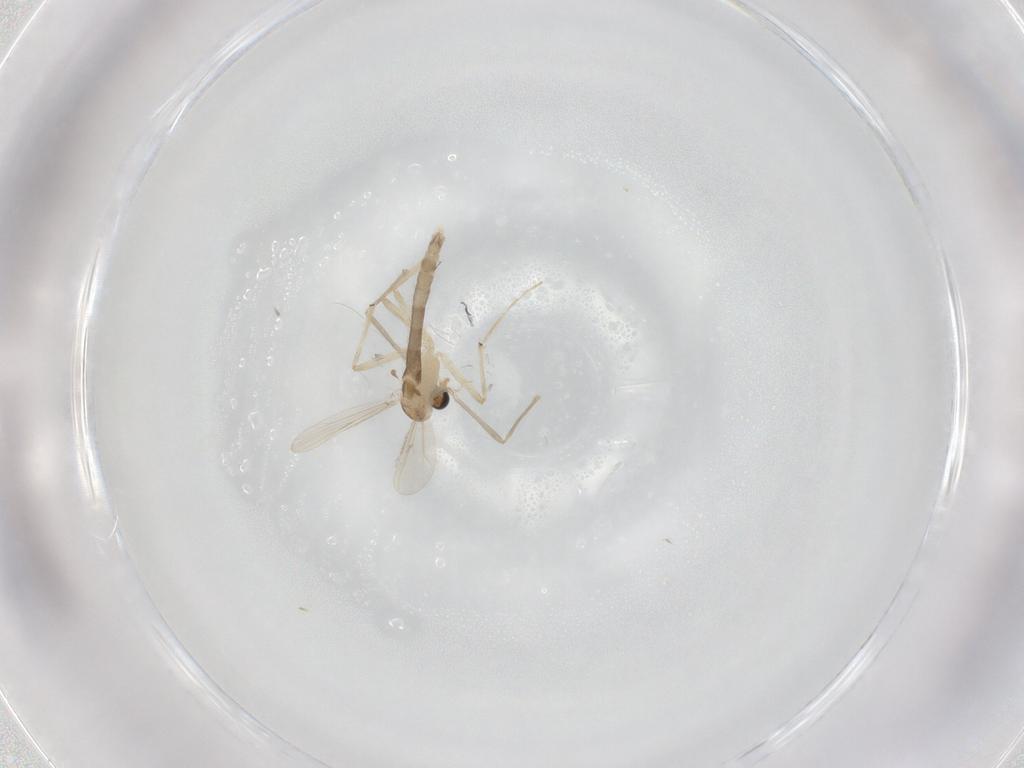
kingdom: Animalia
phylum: Arthropoda
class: Insecta
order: Diptera
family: Chironomidae
